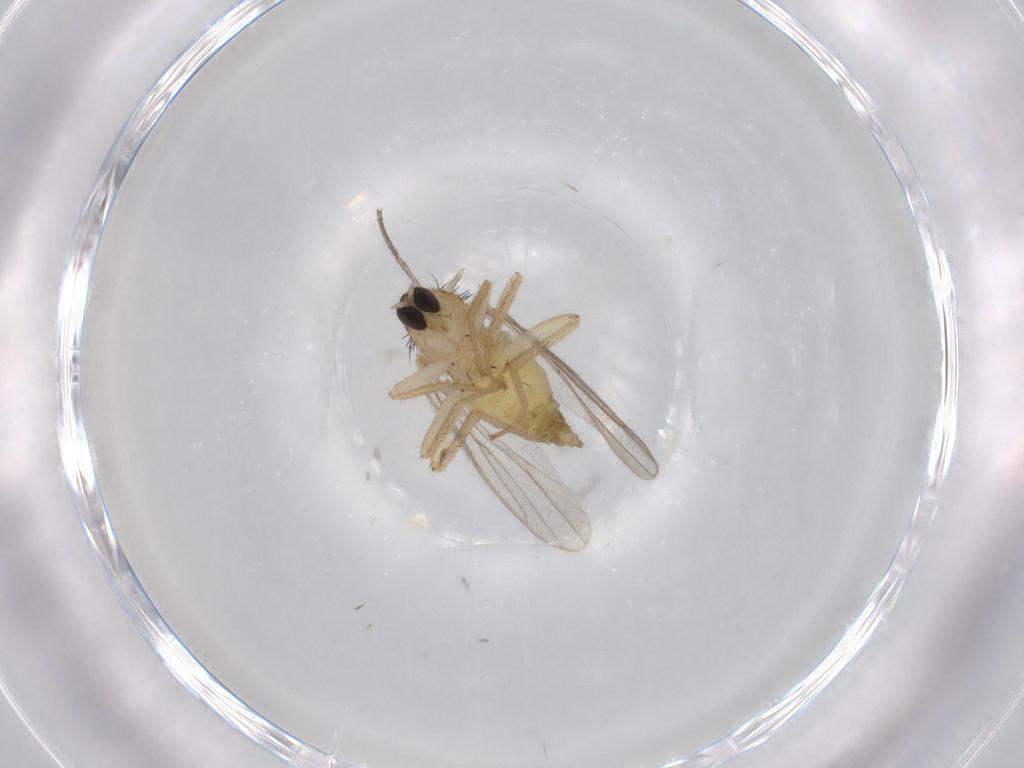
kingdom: Animalia
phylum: Arthropoda
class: Insecta
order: Diptera
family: Hybotidae
